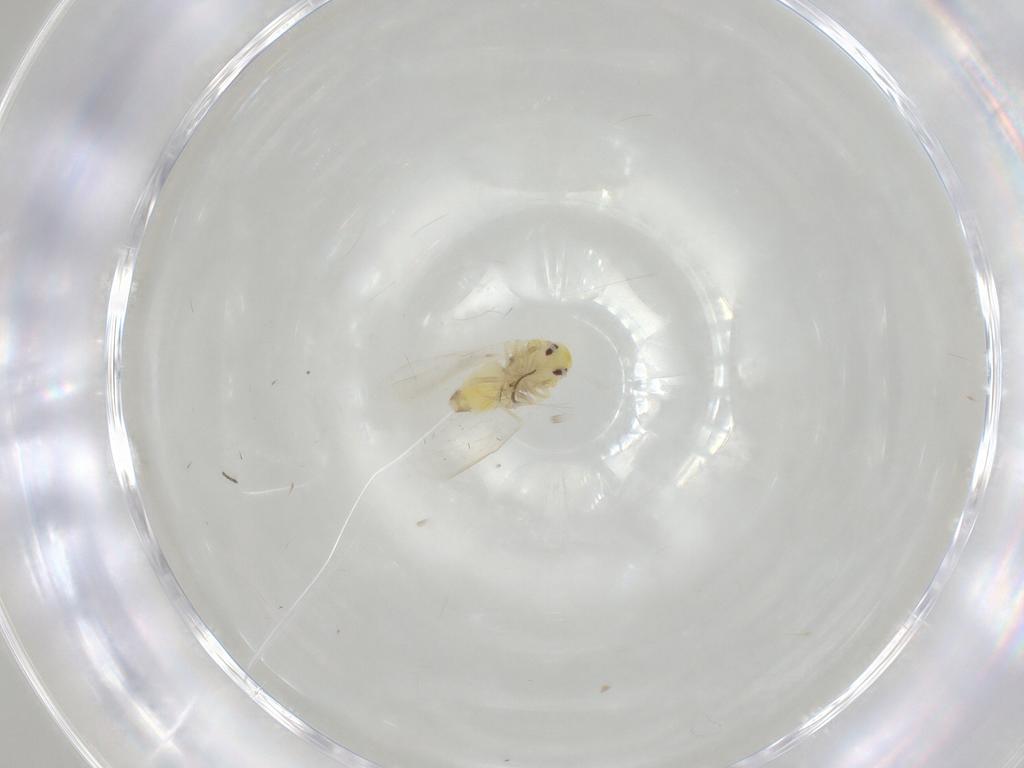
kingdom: Animalia
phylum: Arthropoda
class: Insecta
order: Hemiptera
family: Aleyrodidae
